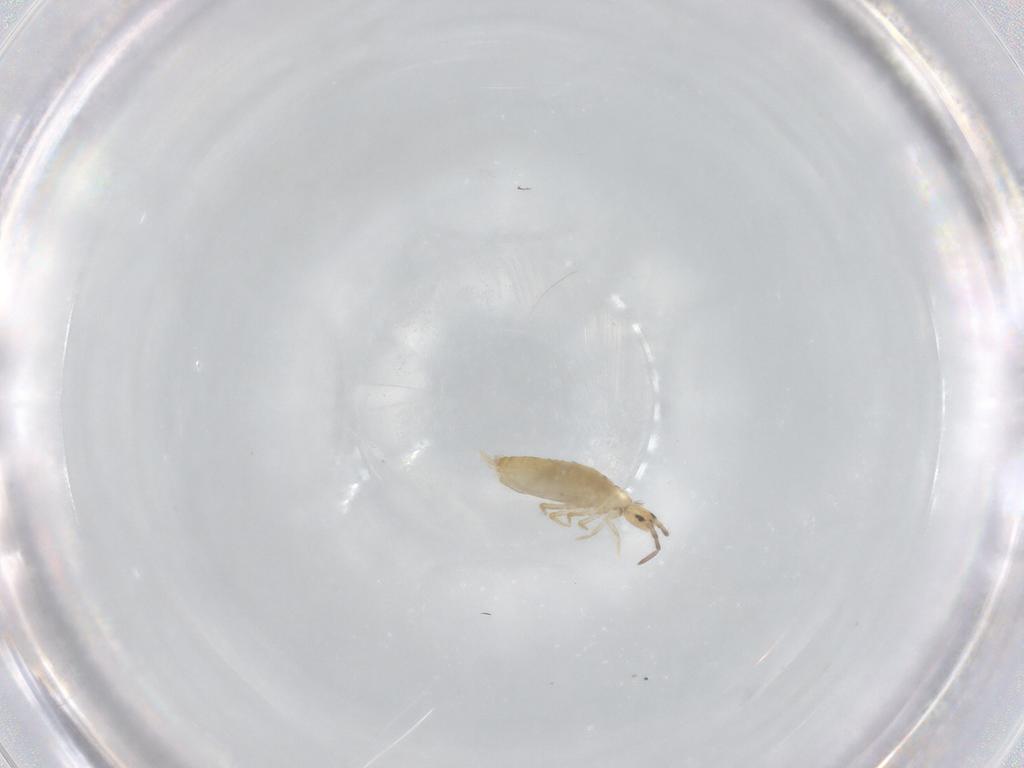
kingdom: Animalia
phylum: Arthropoda
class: Collembola
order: Entomobryomorpha
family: Entomobryidae
